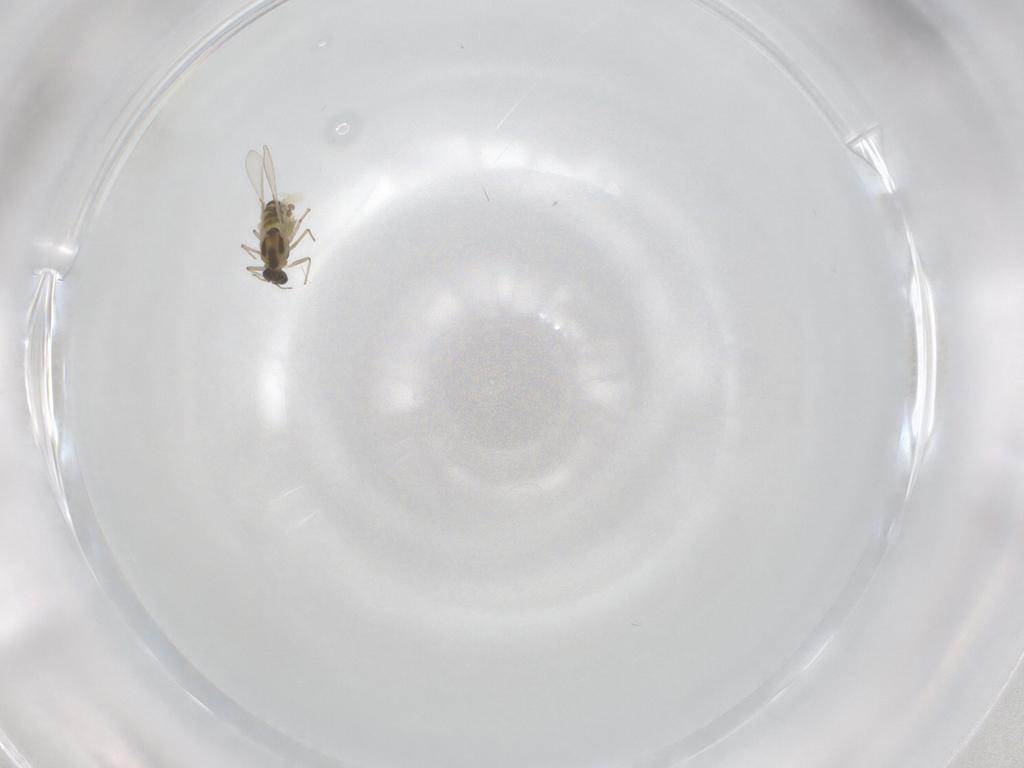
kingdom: Animalia
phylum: Arthropoda
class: Insecta
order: Diptera
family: Chironomidae
